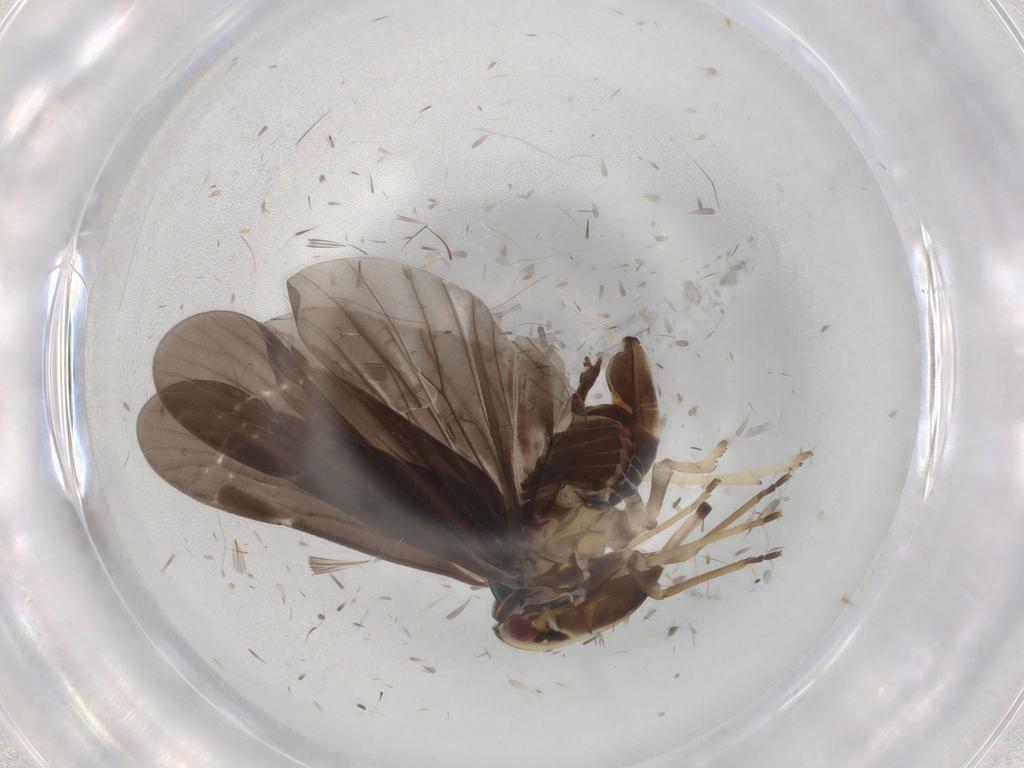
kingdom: Animalia
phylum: Arthropoda
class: Insecta
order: Hemiptera
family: Derbidae
